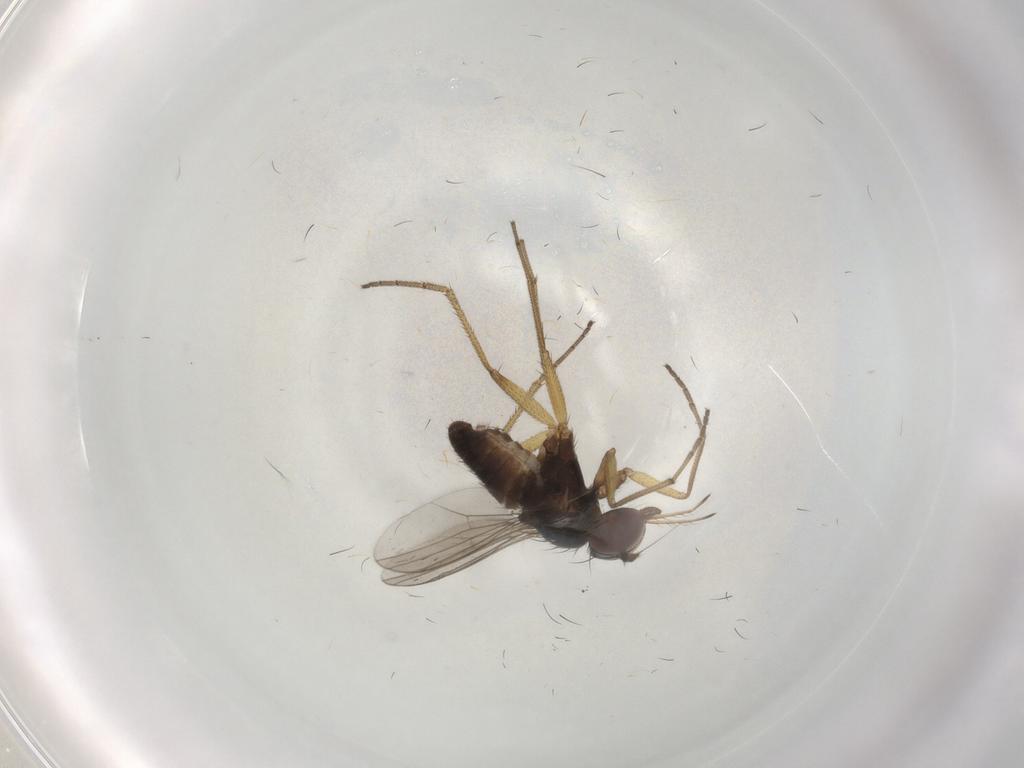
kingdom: Animalia
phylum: Arthropoda
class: Insecta
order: Diptera
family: Dolichopodidae
